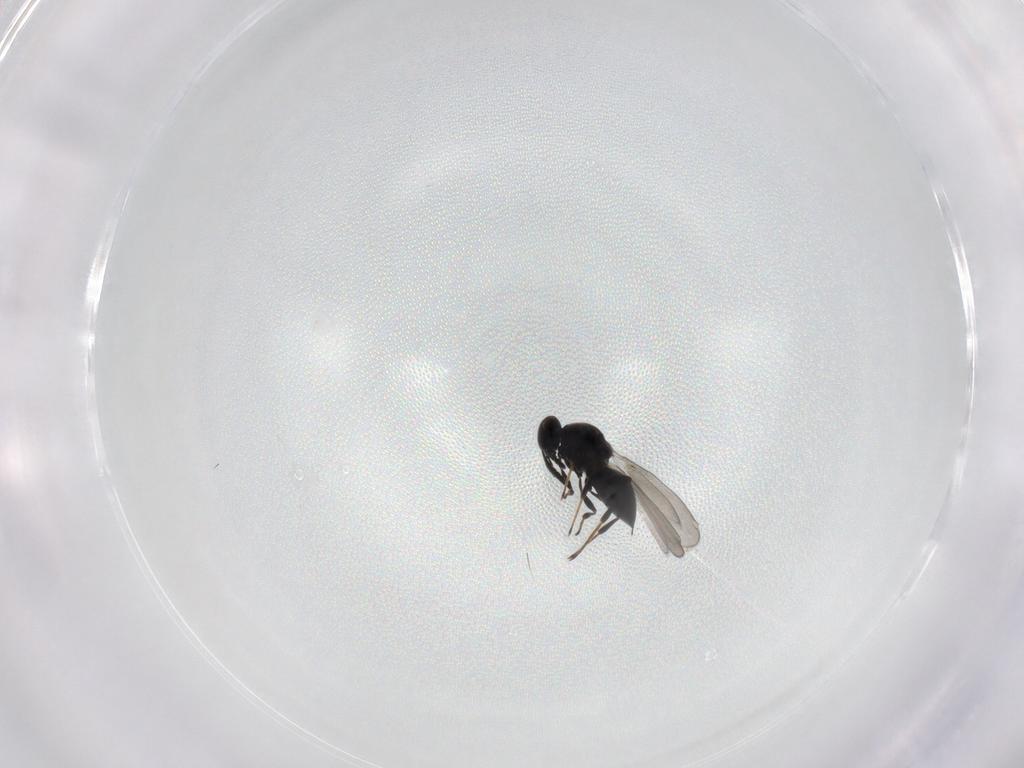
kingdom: Animalia
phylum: Arthropoda
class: Insecta
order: Hymenoptera
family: Platygastridae
